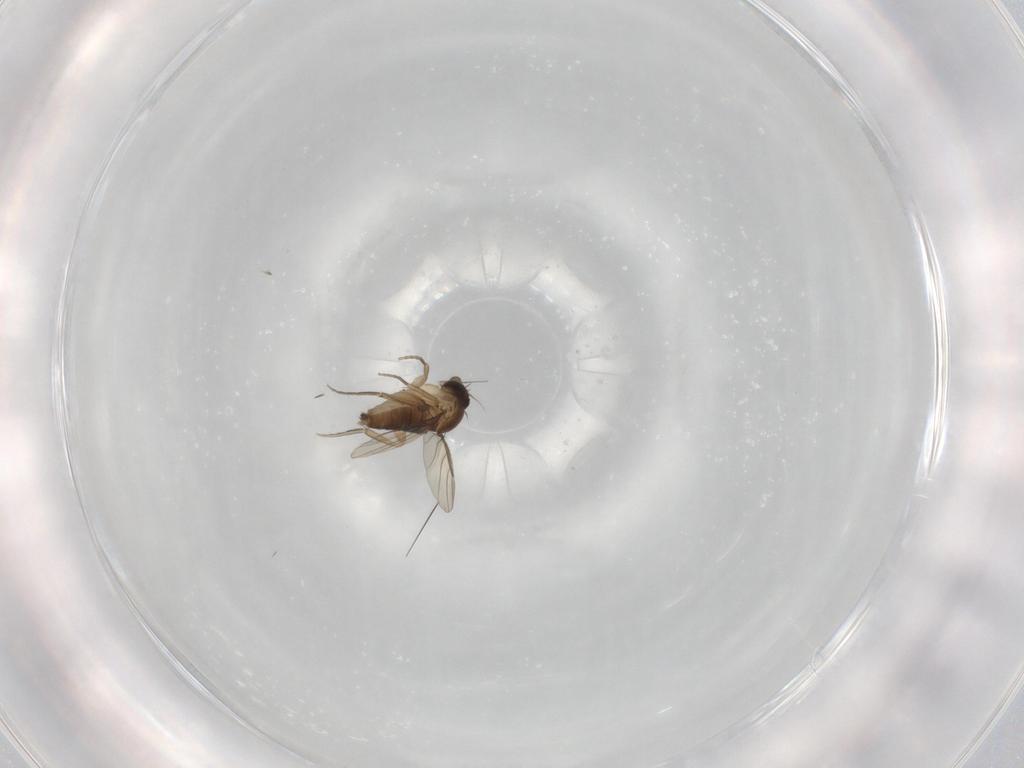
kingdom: Animalia
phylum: Arthropoda
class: Insecta
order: Diptera
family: Phoridae
